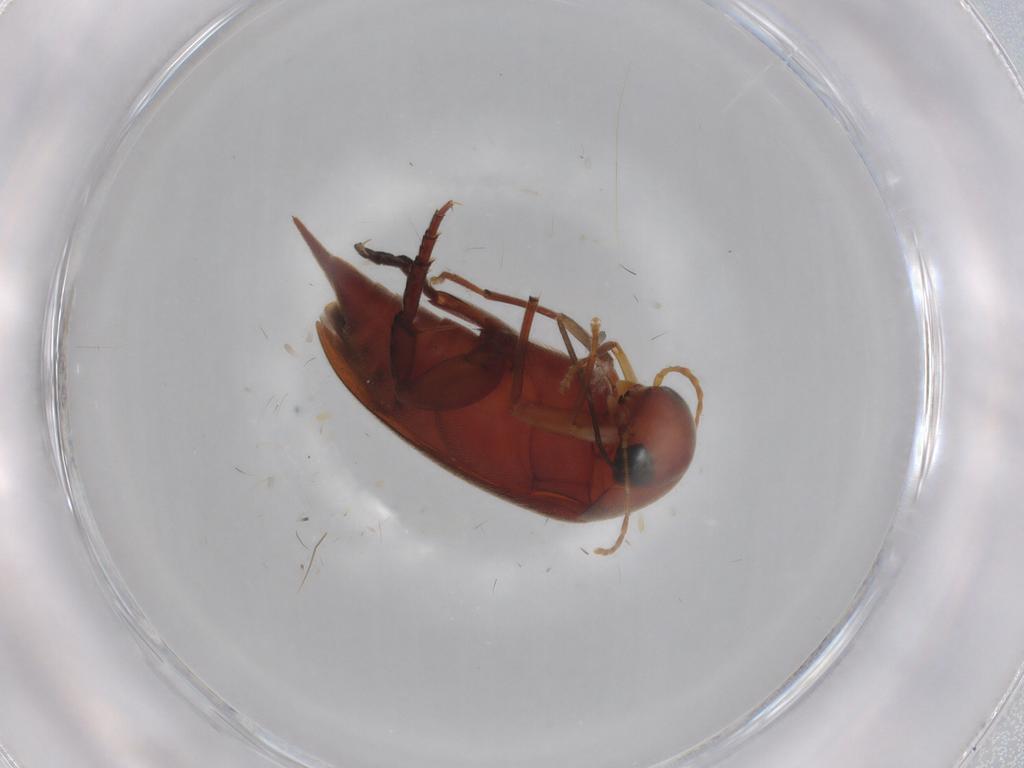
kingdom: Animalia
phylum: Arthropoda
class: Insecta
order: Coleoptera
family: Mordellidae
